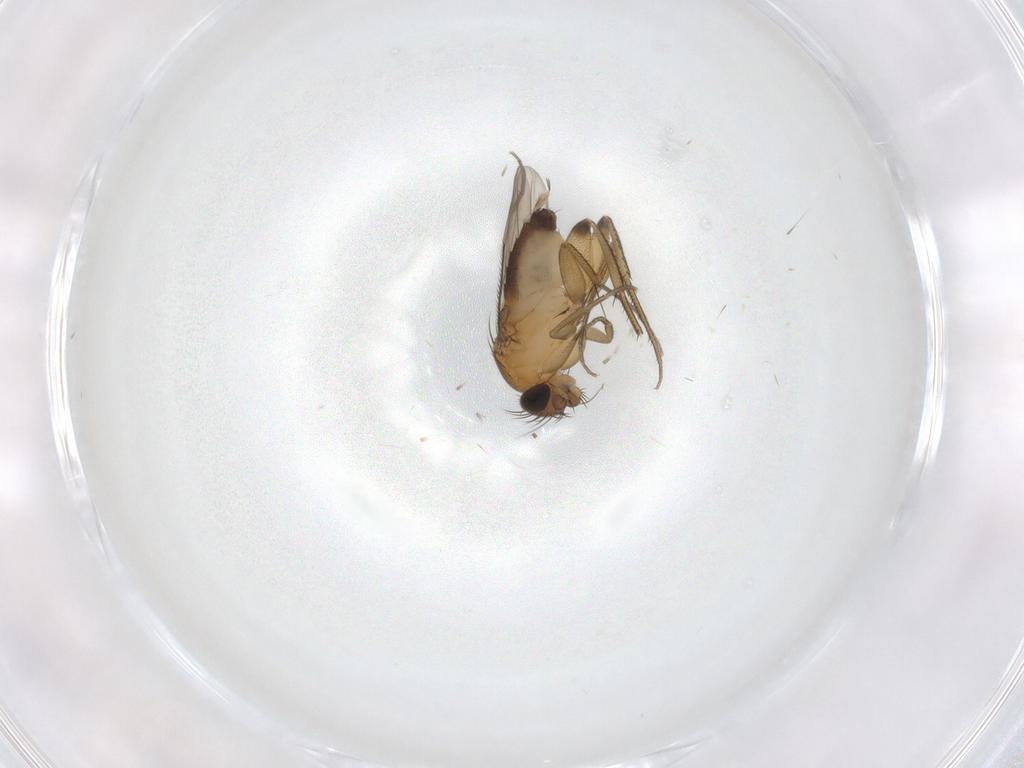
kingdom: Animalia
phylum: Arthropoda
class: Insecta
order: Diptera
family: Phoridae
